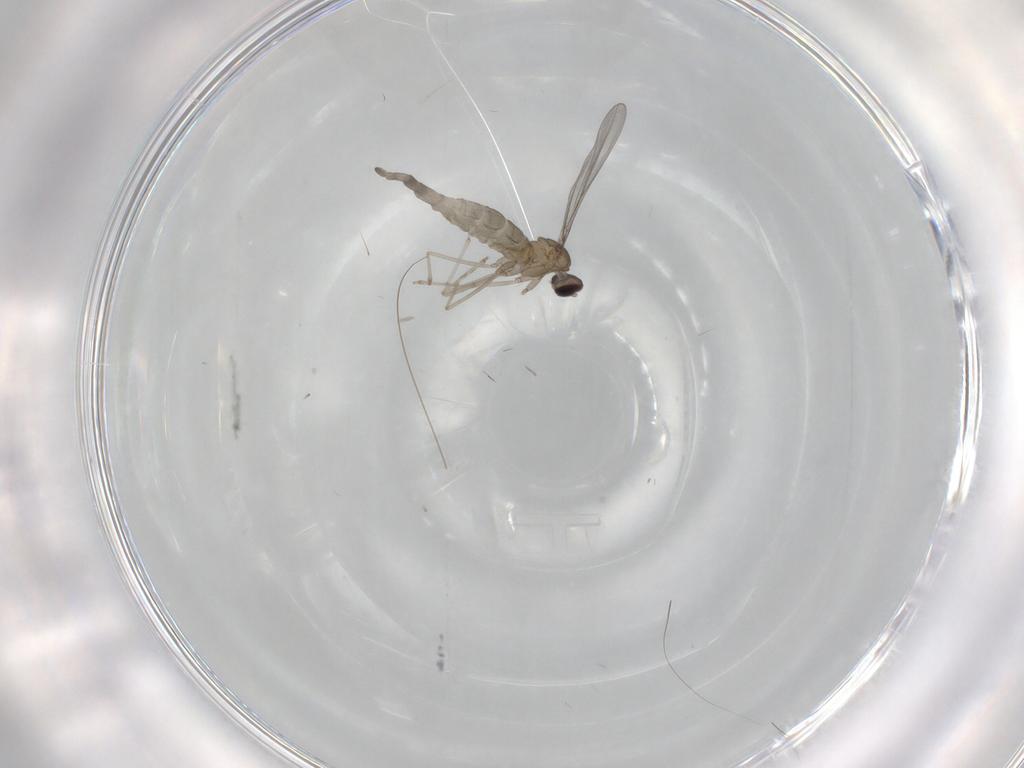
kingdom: Animalia
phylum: Arthropoda
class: Insecta
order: Diptera
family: Cecidomyiidae
